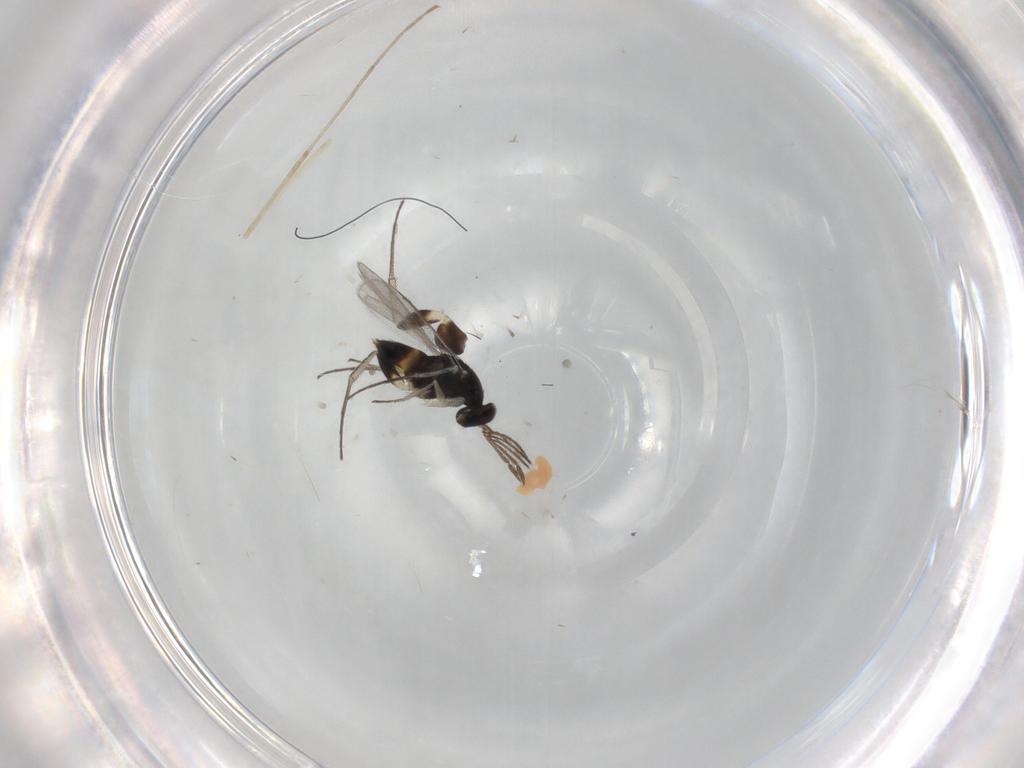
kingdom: Animalia
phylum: Arthropoda
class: Insecta
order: Hymenoptera
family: Eulophidae
